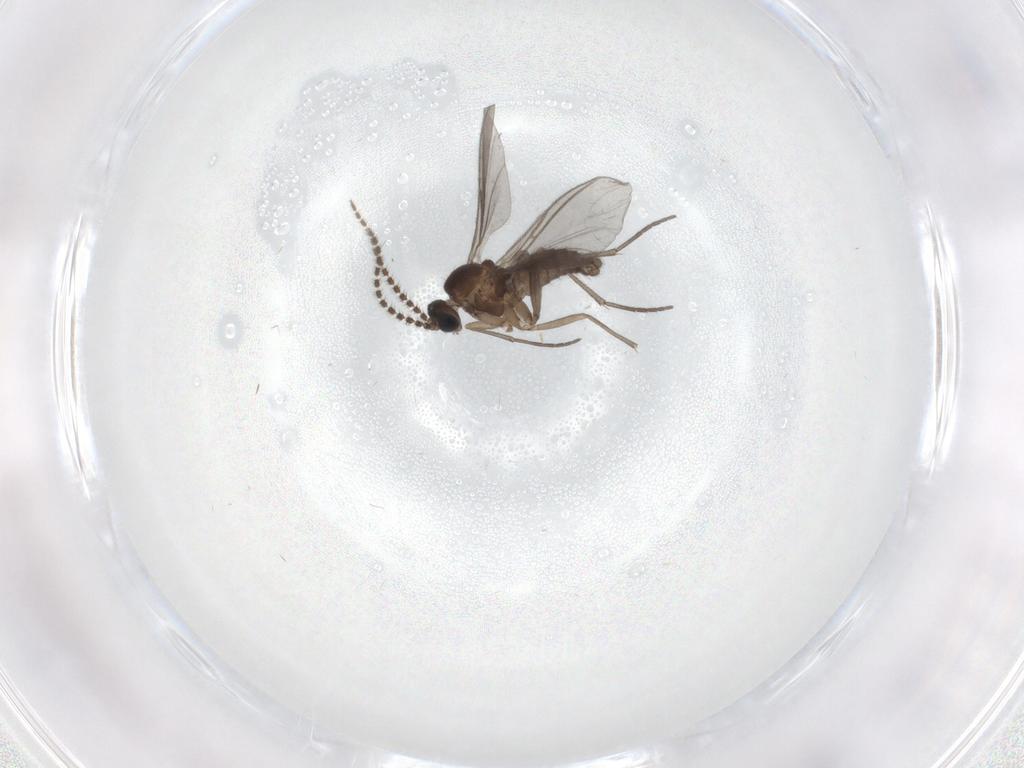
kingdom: Animalia
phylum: Arthropoda
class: Insecta
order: Diptera
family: Sciaridae
